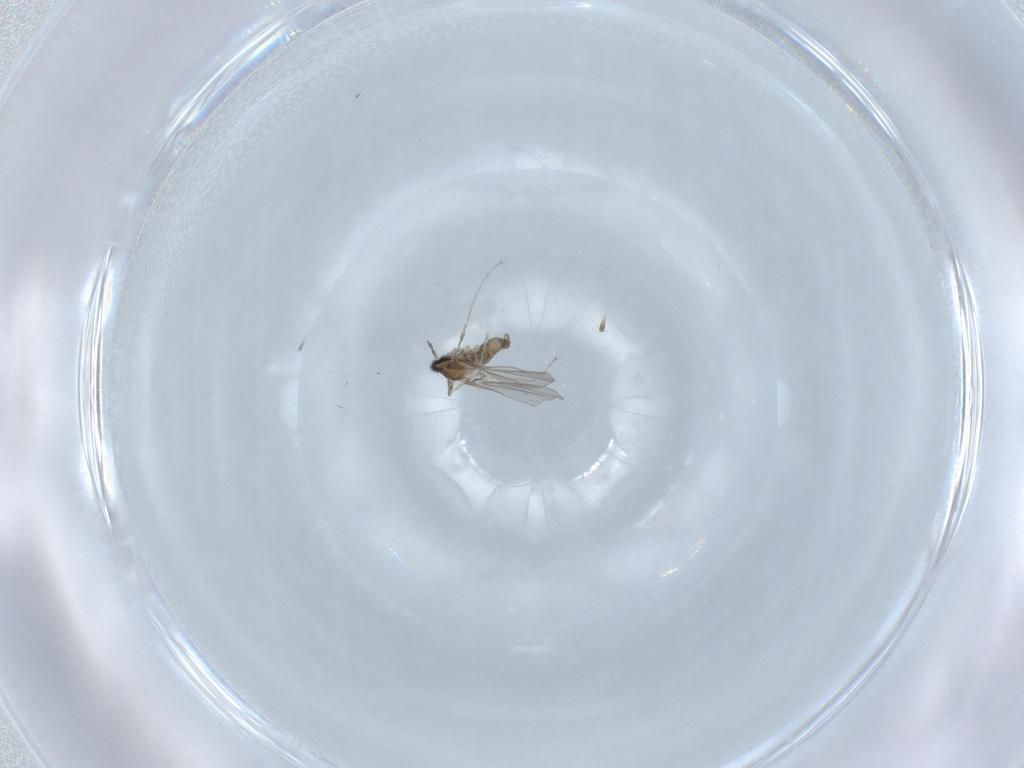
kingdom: Animalia
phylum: Arthropoda
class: Insecta
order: Diptera
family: Cecidomyiidae
